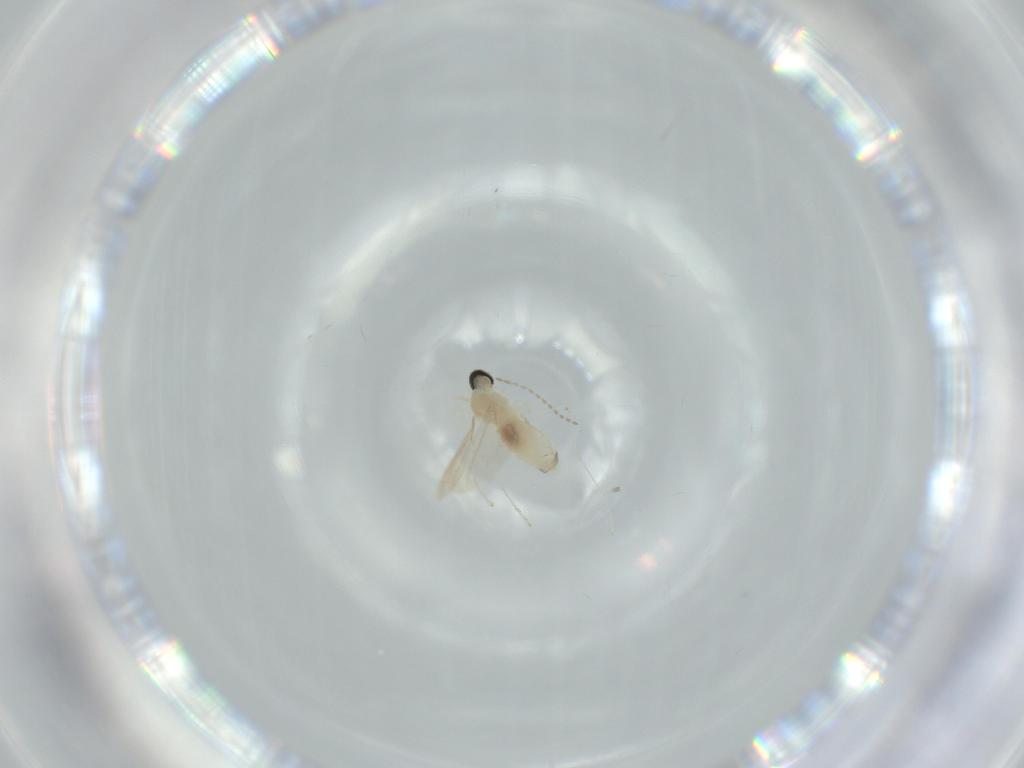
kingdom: Animalia
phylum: Arthropoda
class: Insecta
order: Diptera
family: Cecidomyiidae
